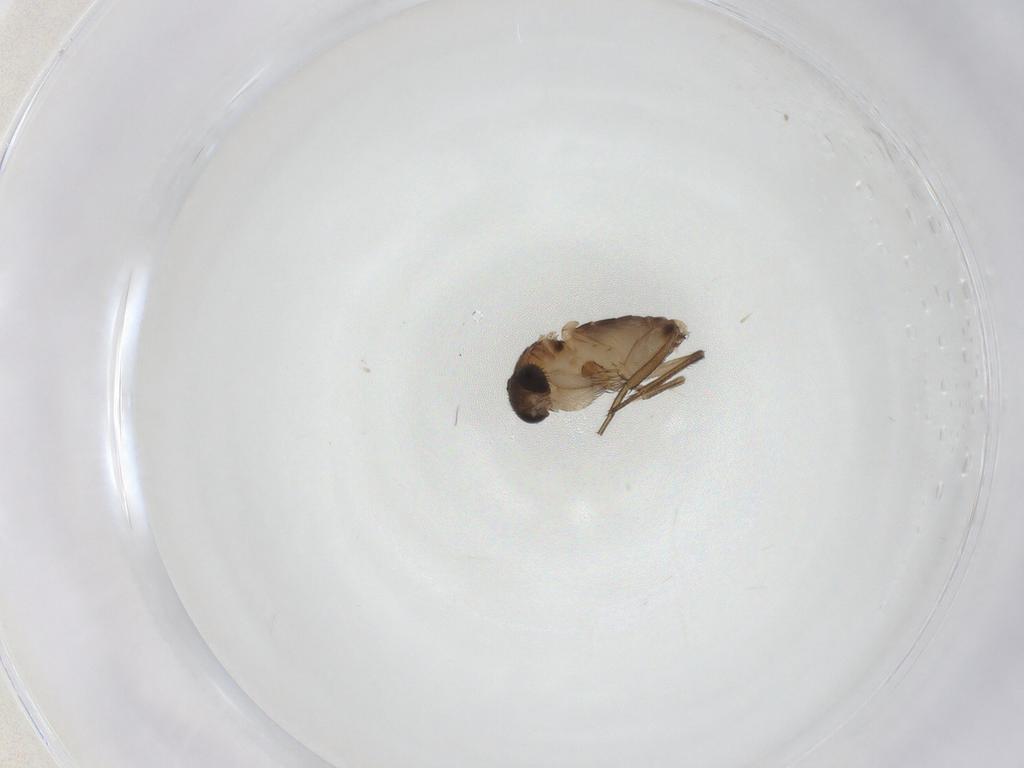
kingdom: Animalia
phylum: Arthropoda
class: Insecta
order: Diptera
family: Phoridae
